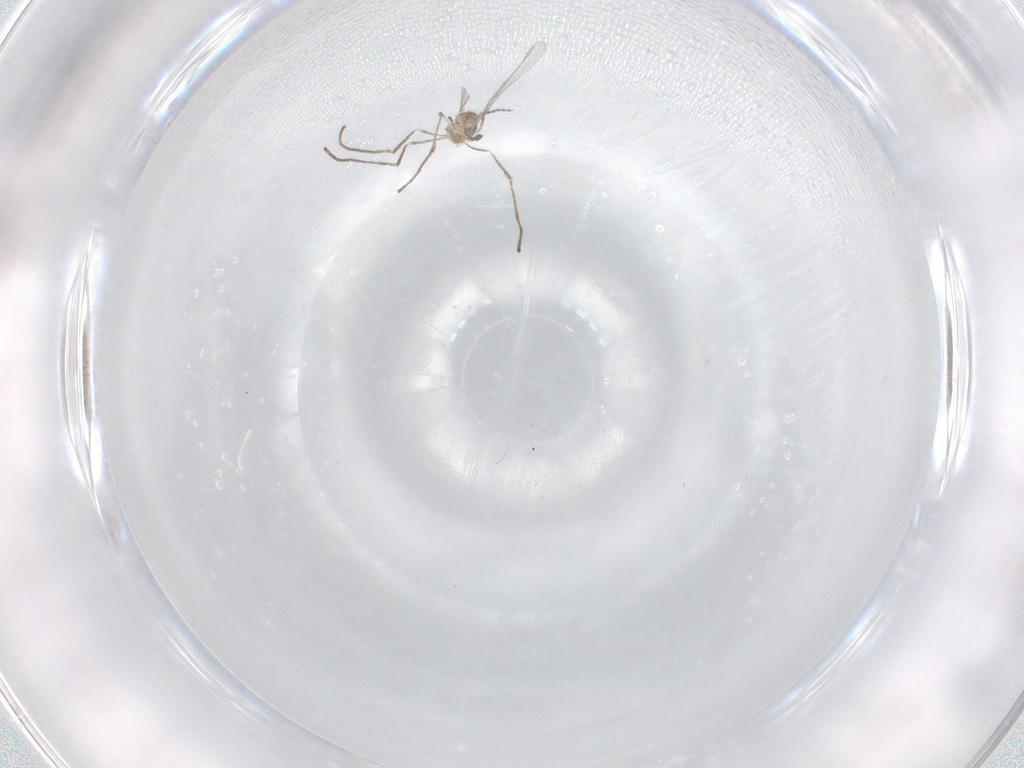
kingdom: Animalia
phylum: Arthropoda
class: Insecta
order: Diptera
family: Cecidomyiidae
